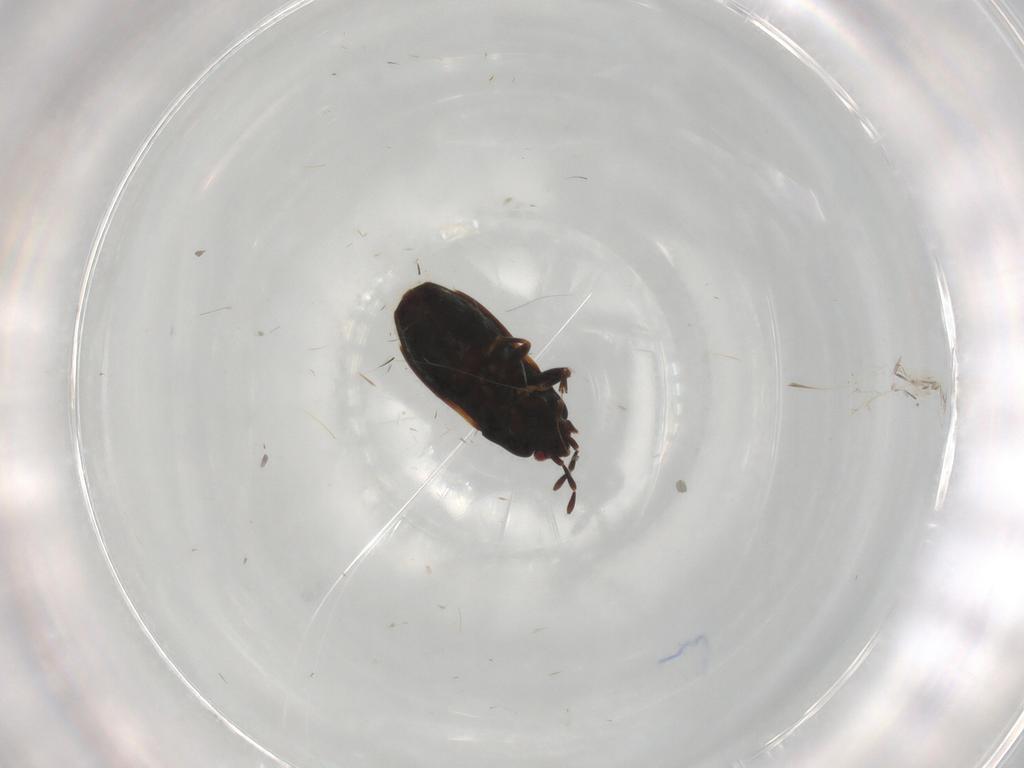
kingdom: Animalia
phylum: Arthropoda
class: Insecta
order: Hemiptera
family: Rhyparochromidae
